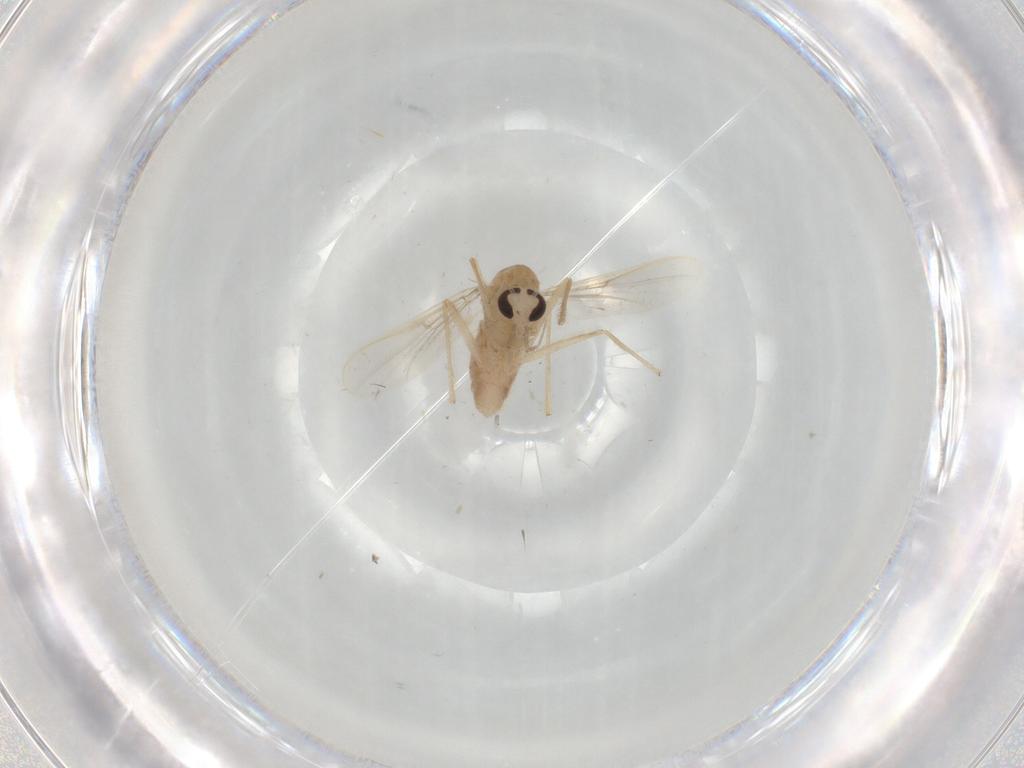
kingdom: Animalia
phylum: Arthropoda
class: Insecta
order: Diptera
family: Chironomidae
